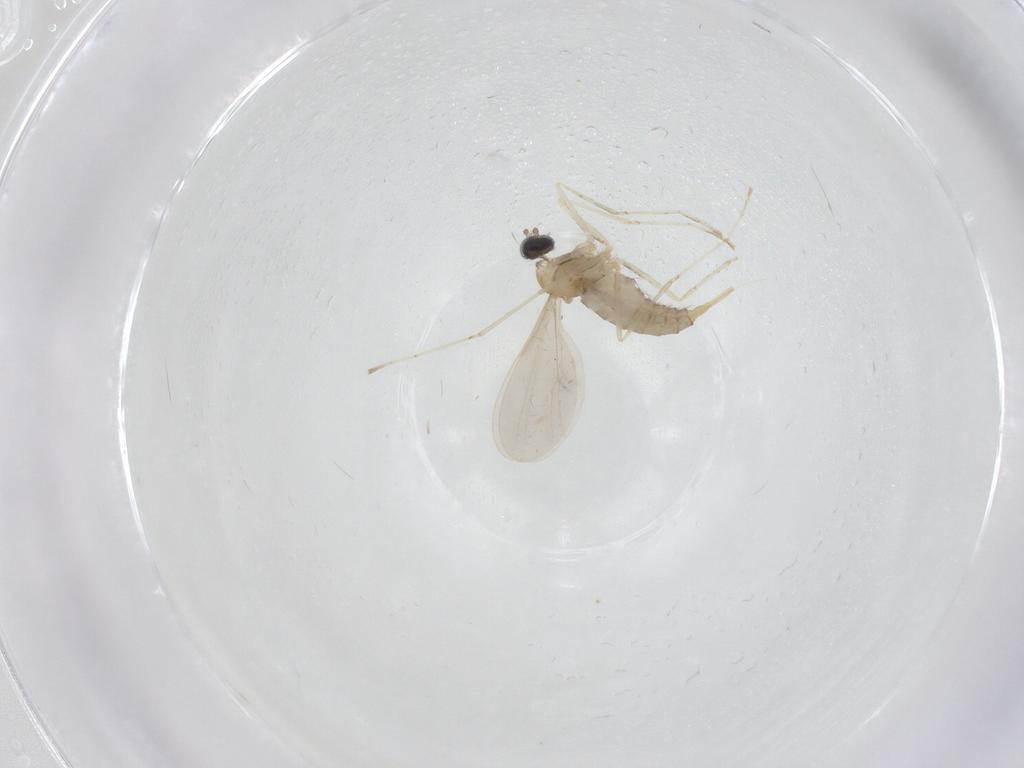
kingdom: Animalia
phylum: Arthropoda
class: Insecta
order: Diptera
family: Cecidomyiidae
